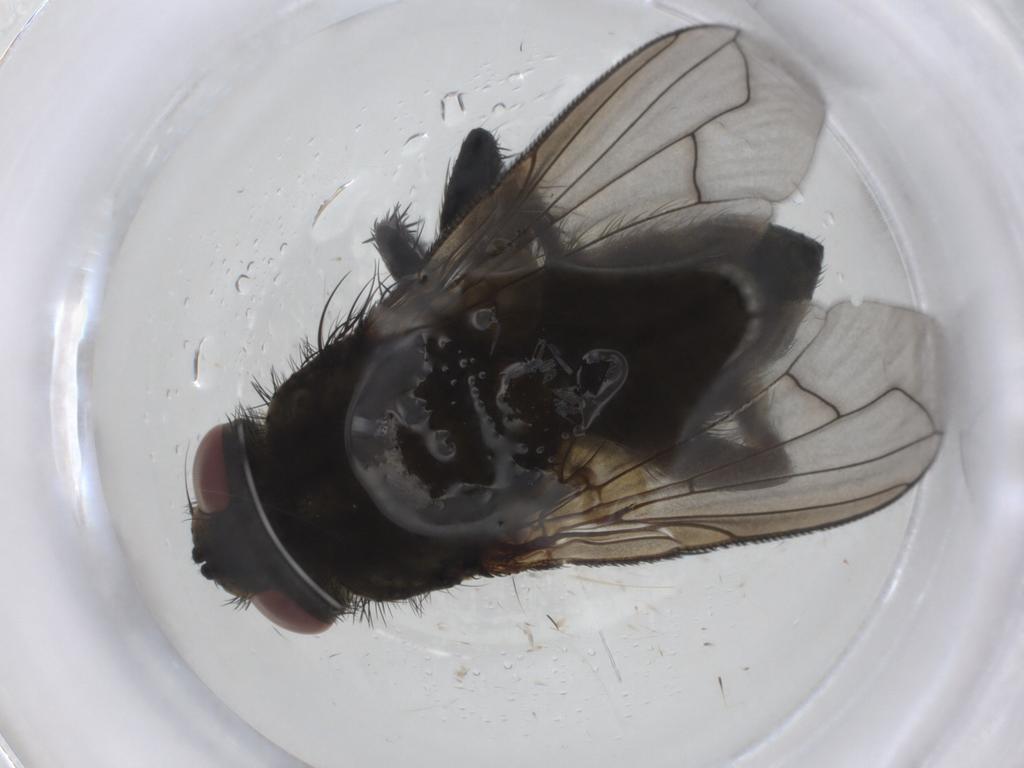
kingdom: Animalia
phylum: Arthropoda
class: Insecta
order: Diptera
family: Tachinidae
